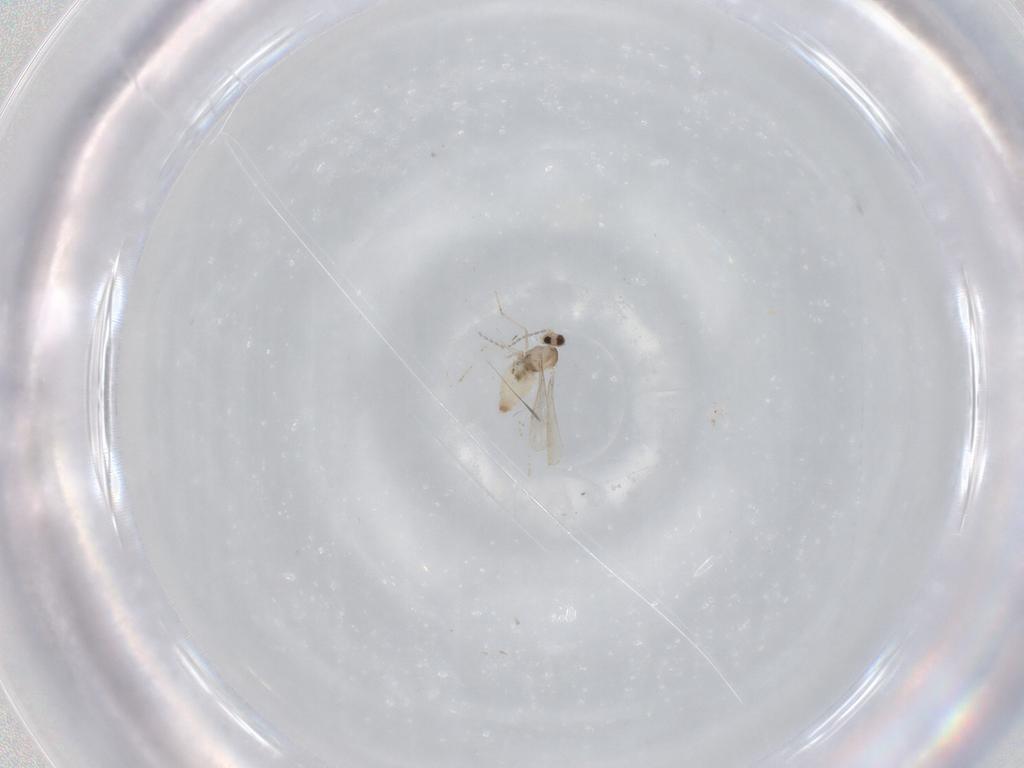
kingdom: Animalia
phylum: Arthropoda
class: Insecta
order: Diptera
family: Cecidomyiidae
